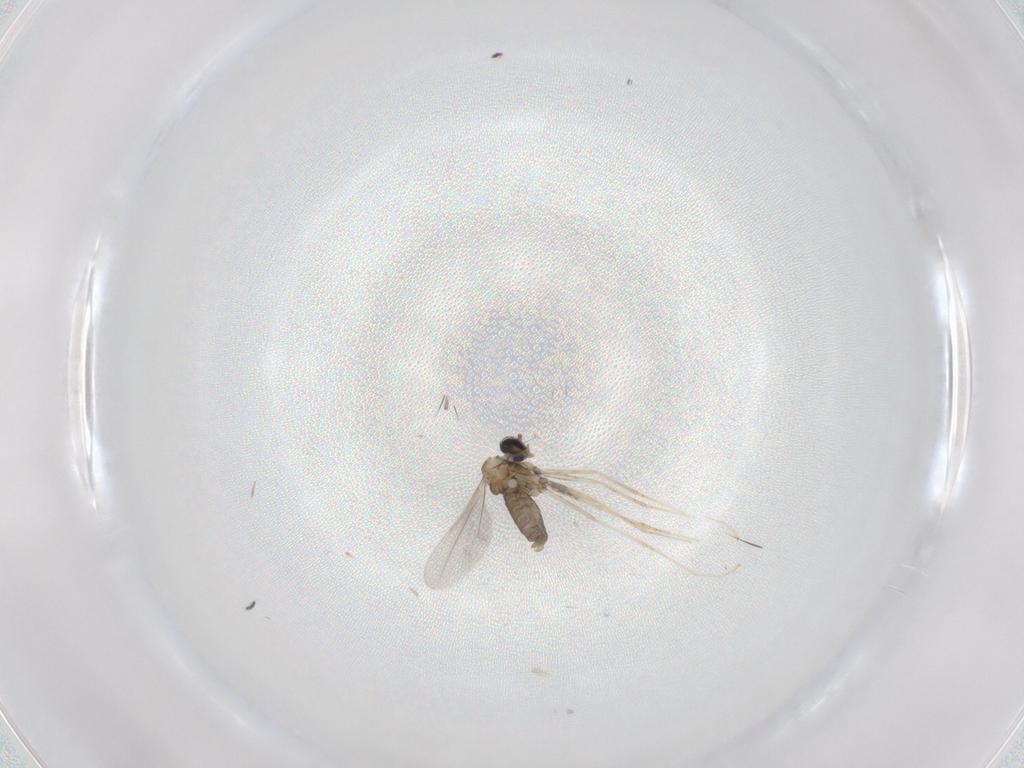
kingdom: Animalia
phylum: Arthropoda
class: Insecta
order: Diptera
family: Cecidomyiidae
